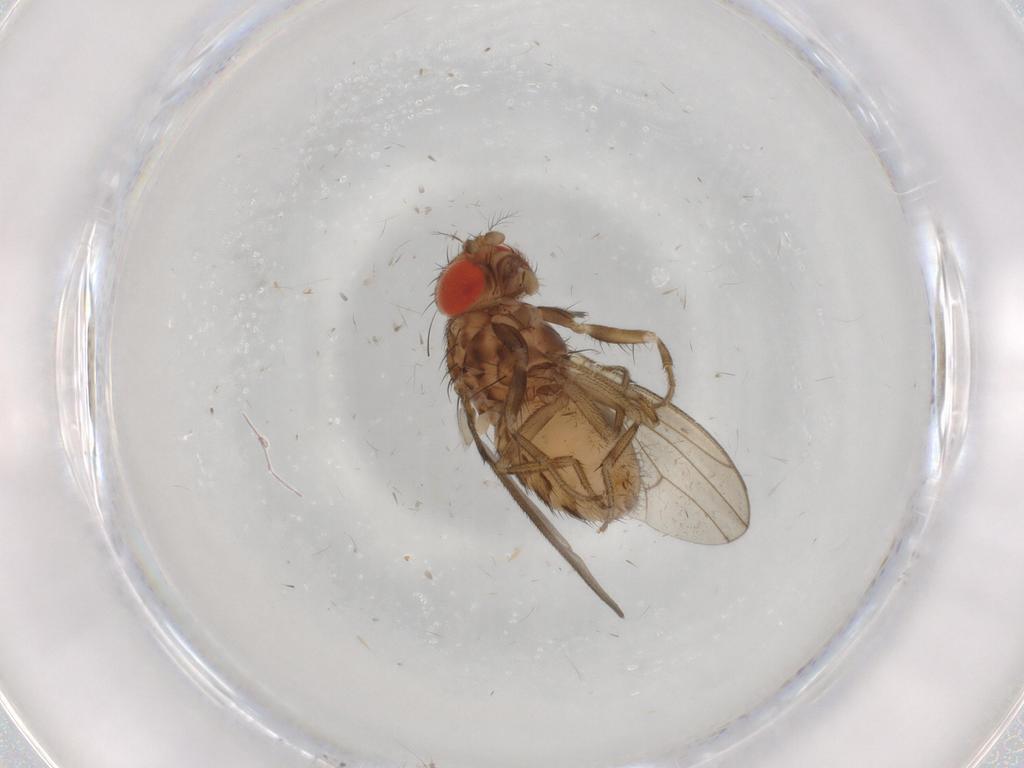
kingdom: Animalia
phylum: Arthropoda
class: Insecta
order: Diptera
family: Drosophilidae
